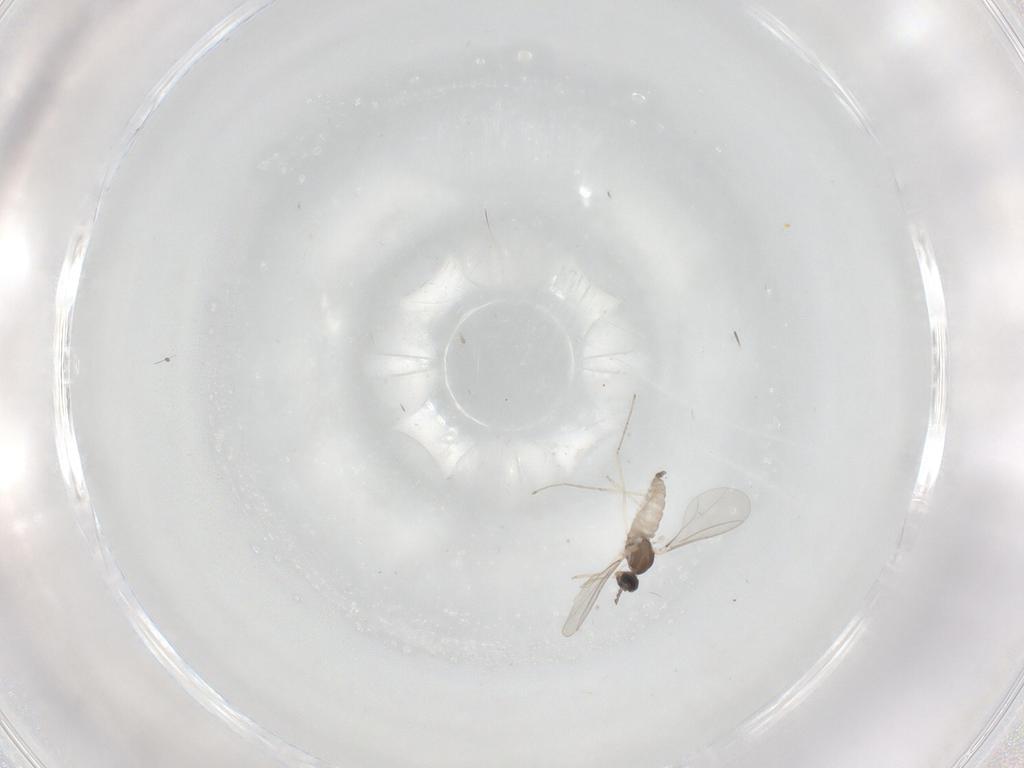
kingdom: Animalia
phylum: Arthropoda
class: Insecta
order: Diptera
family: Cecidomyiidae
